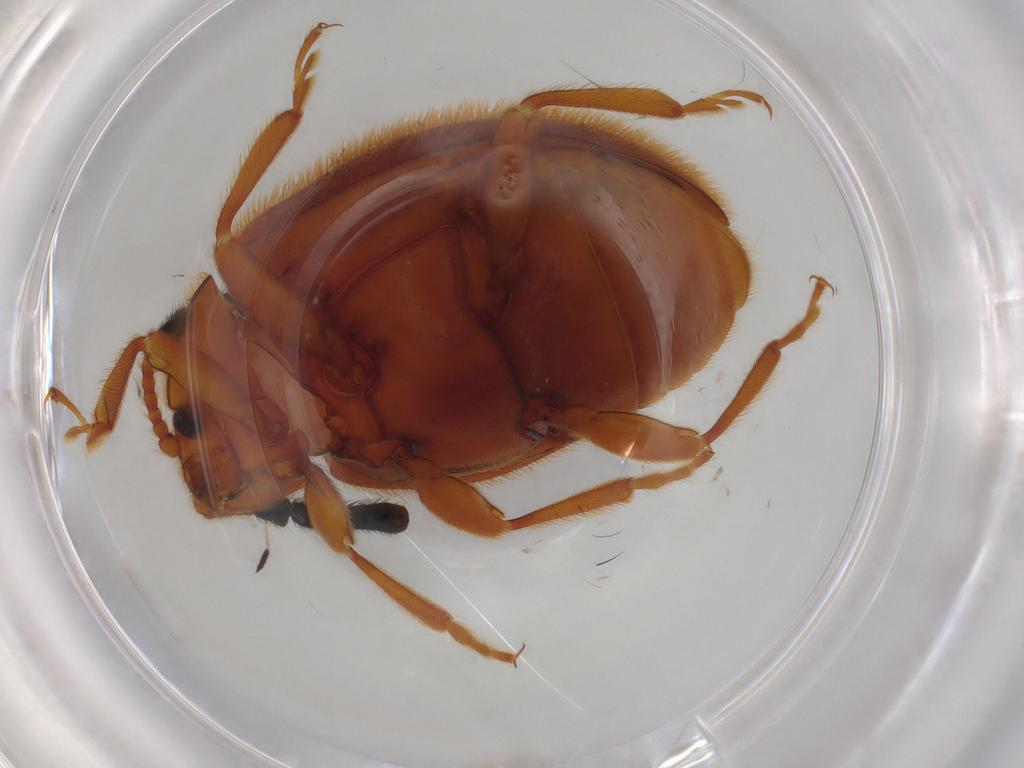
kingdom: Animalia
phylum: Arthropoda
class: Insecta
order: Coleoptera
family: Endomychidae
